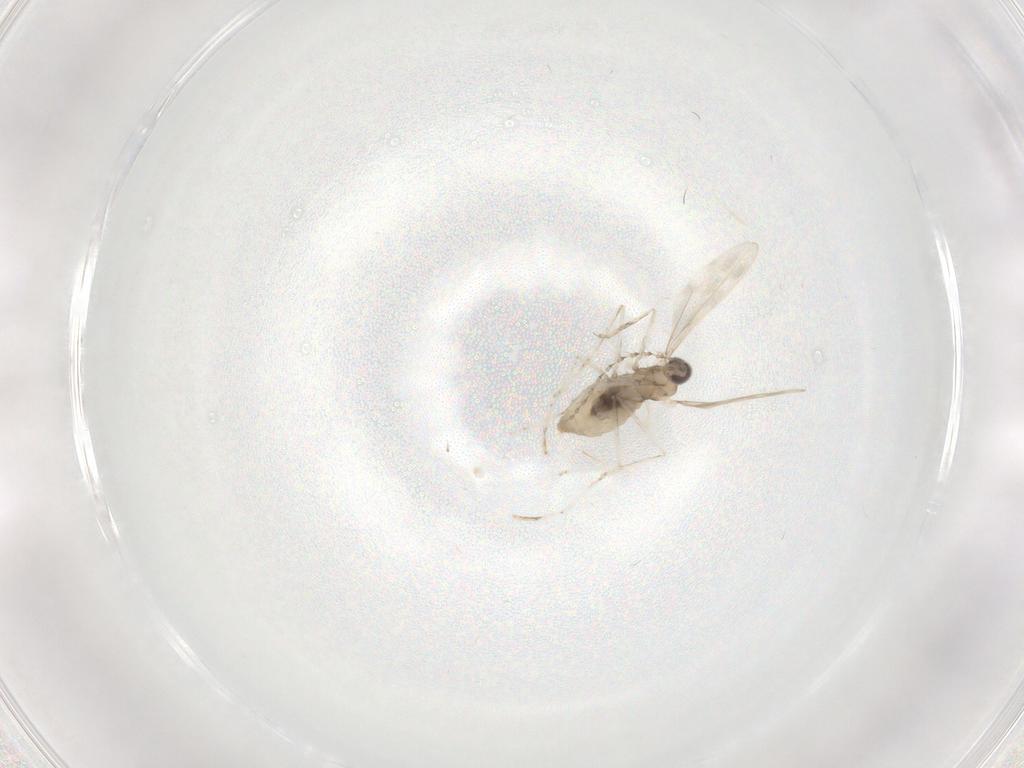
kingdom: Animalia
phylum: Arthropoda
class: Insecta
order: Diptera
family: Cecidomyiidae
